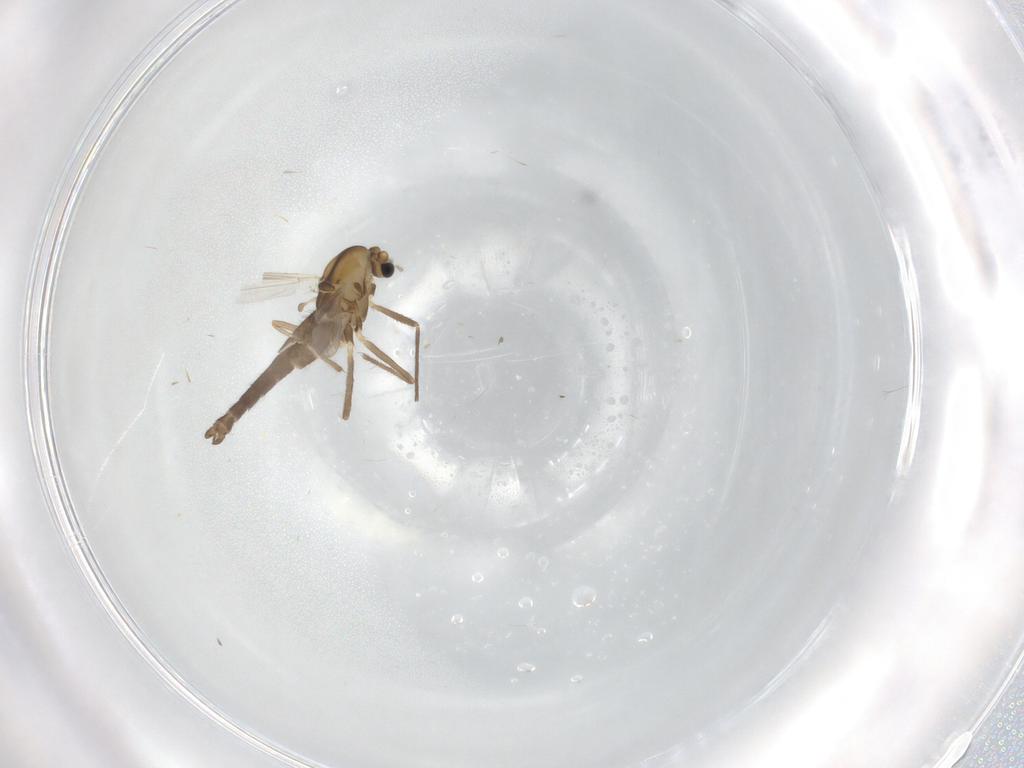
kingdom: Animalia
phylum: Arthropoda
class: Insecta
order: Diptera
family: Chironomidae
